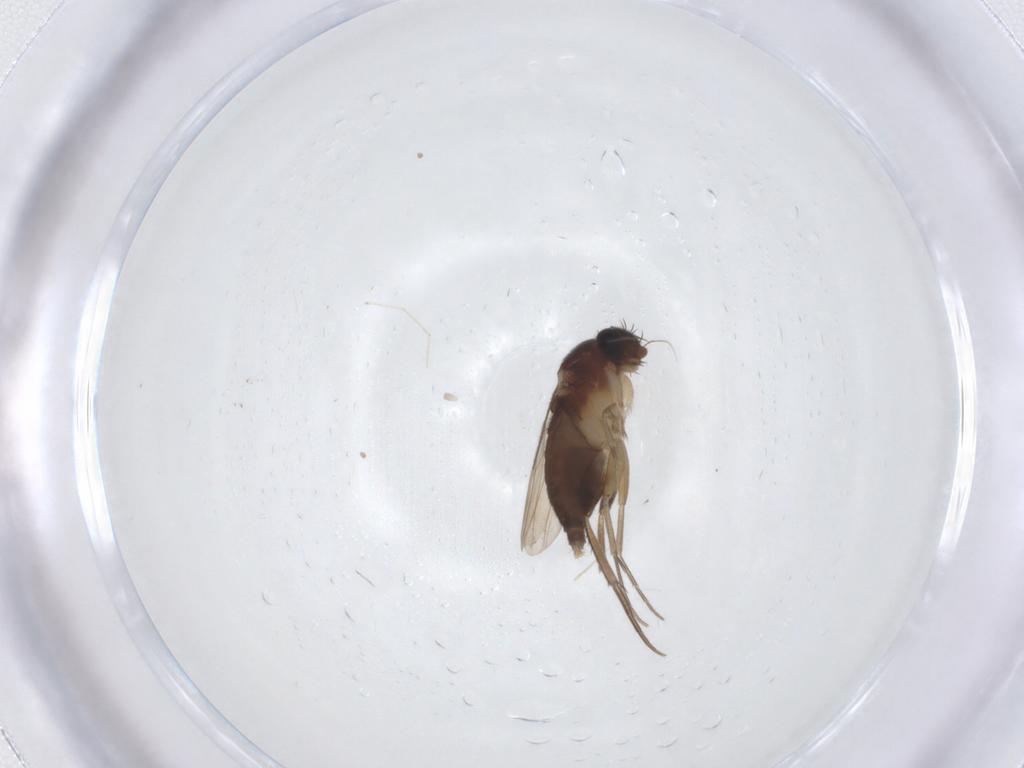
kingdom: Animalia
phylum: Arthropoda
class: Insecta
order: Diptera
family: Phoridae
